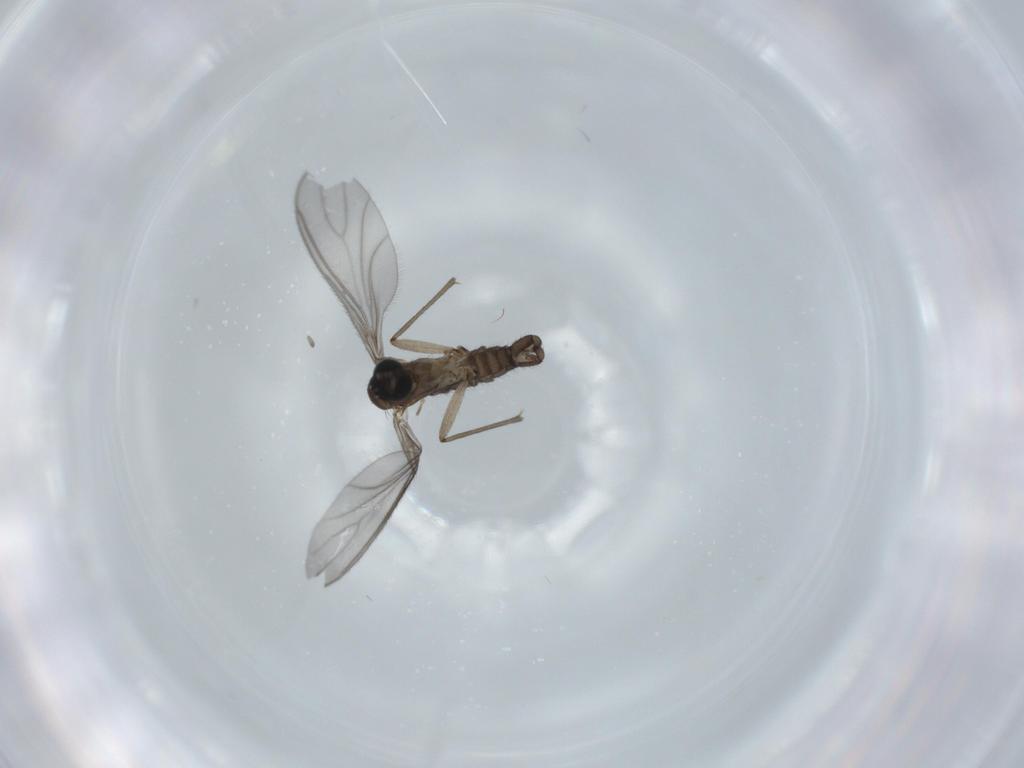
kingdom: Animalia
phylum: Arthropoda
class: Insecta
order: Diptera
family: Sciaridae
